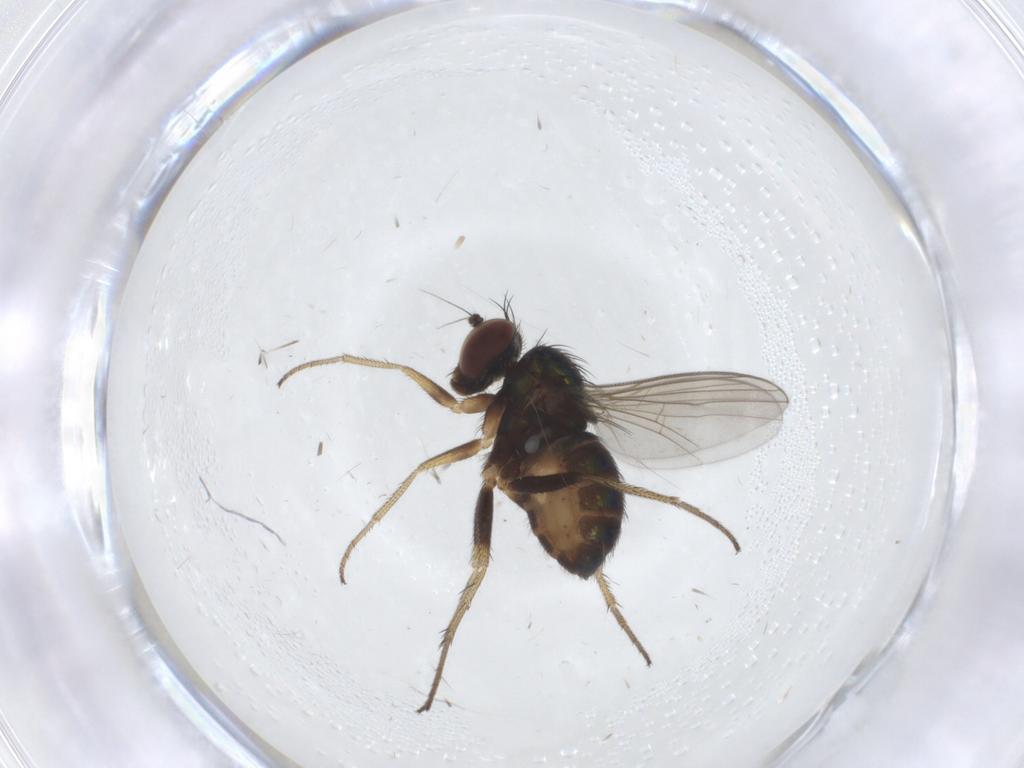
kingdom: Animalia
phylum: Arthropoda
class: Insecta
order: Diptera
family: Dolichopodidae
